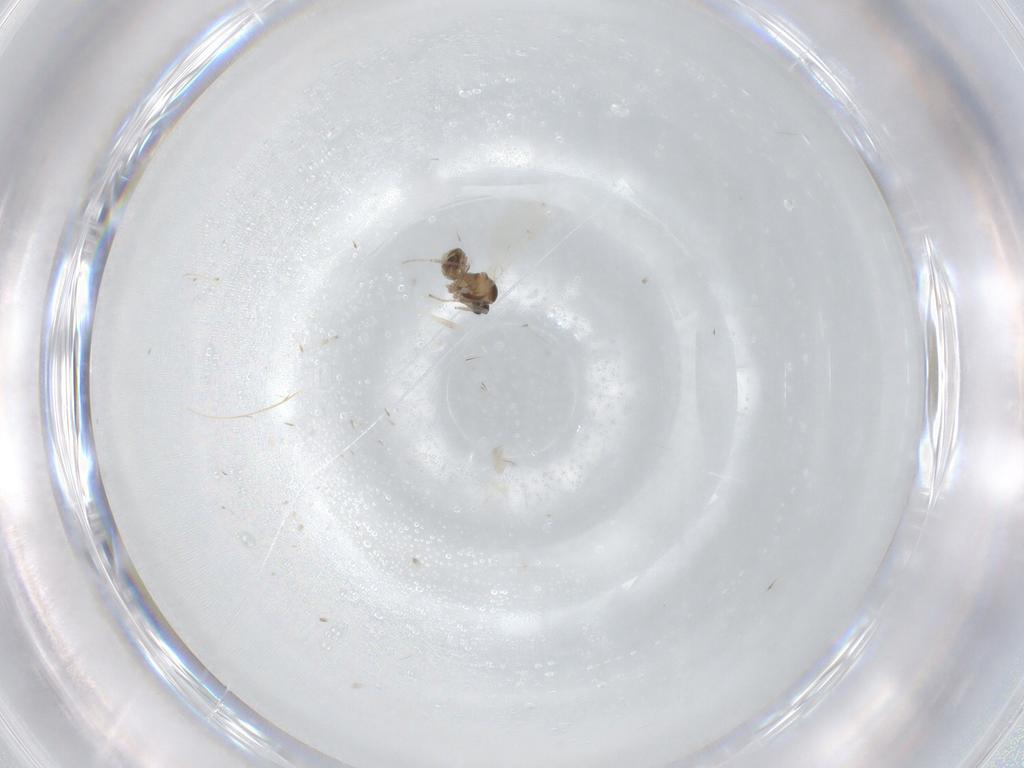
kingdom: Animalia
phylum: Arthropoda
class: Insecta
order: Diptera
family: Cecidomyiidae
